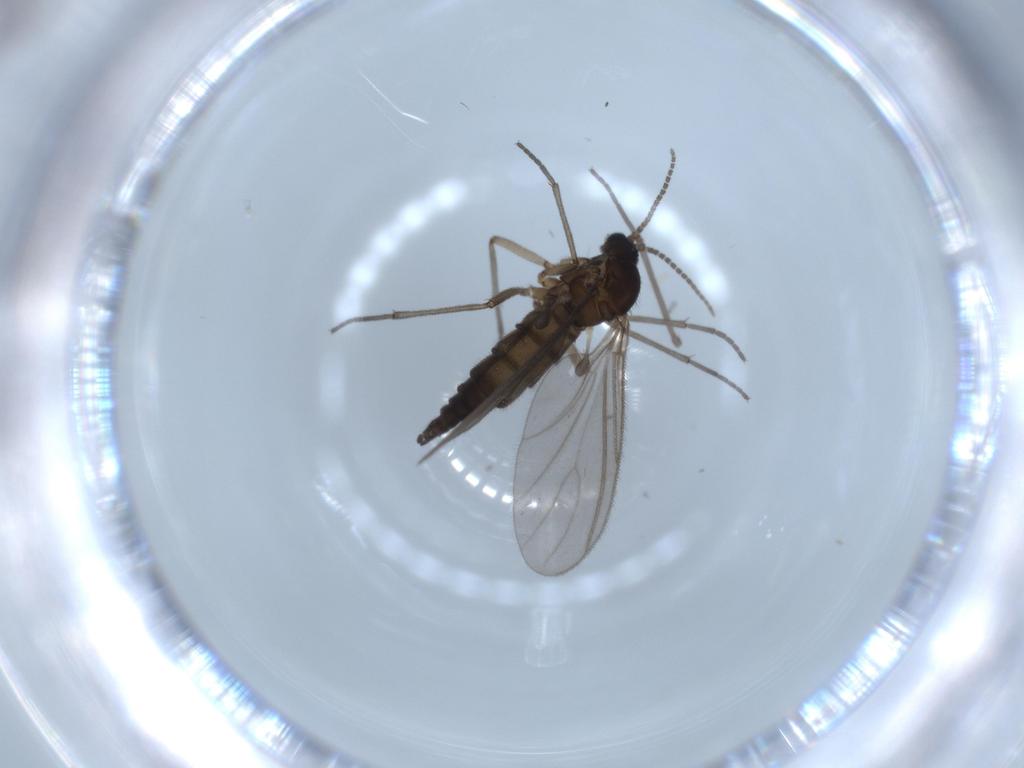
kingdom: Animalia
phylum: Arthropoda
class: Insecta
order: Diptera
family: Sciaridae
